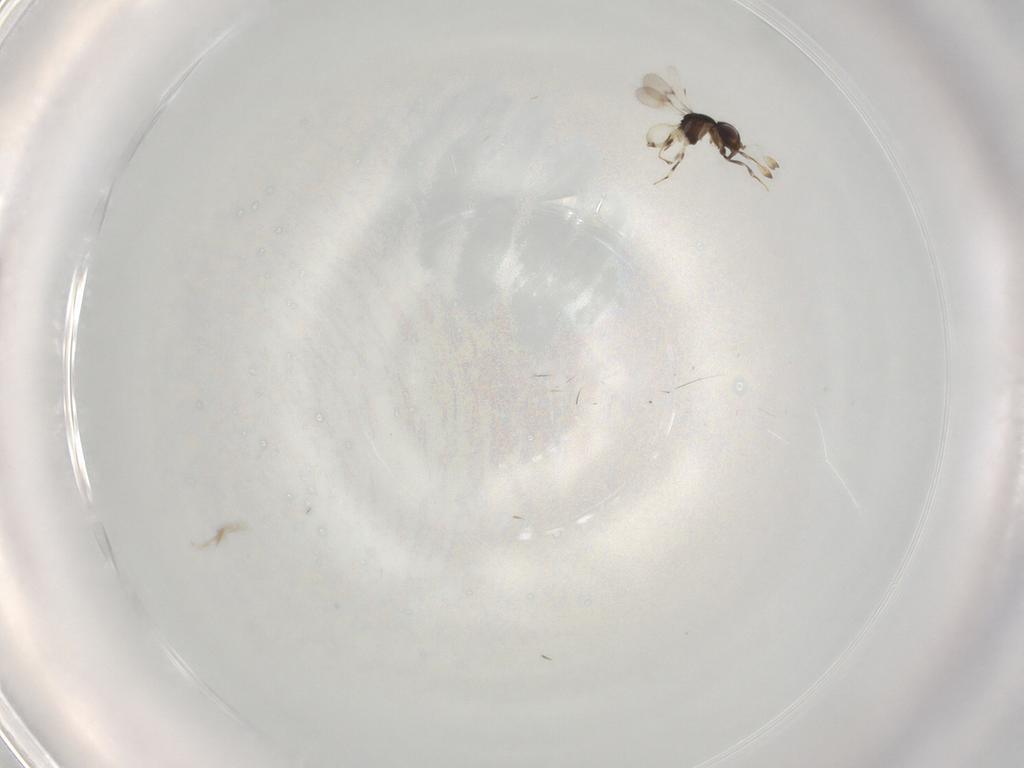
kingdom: Animalia
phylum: Arthropoda
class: Insecta
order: Hymenoptera
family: Scelionidae
